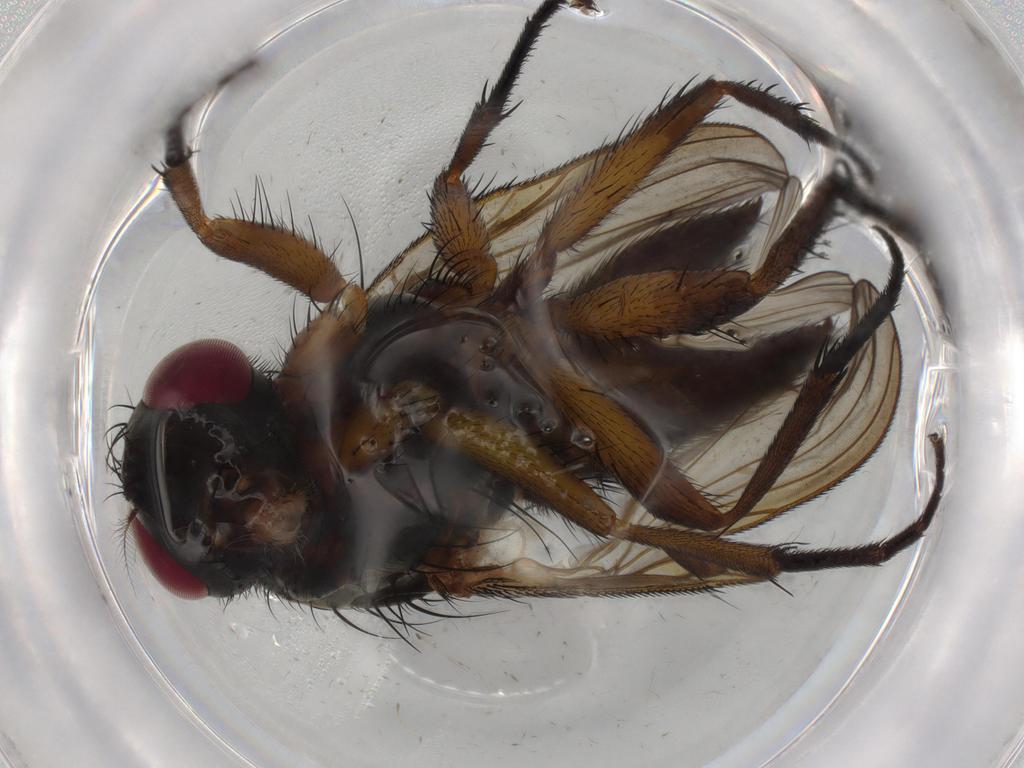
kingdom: Animalia
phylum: Arthropoda
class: Insecta
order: Diptera
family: Anthomyiidae
